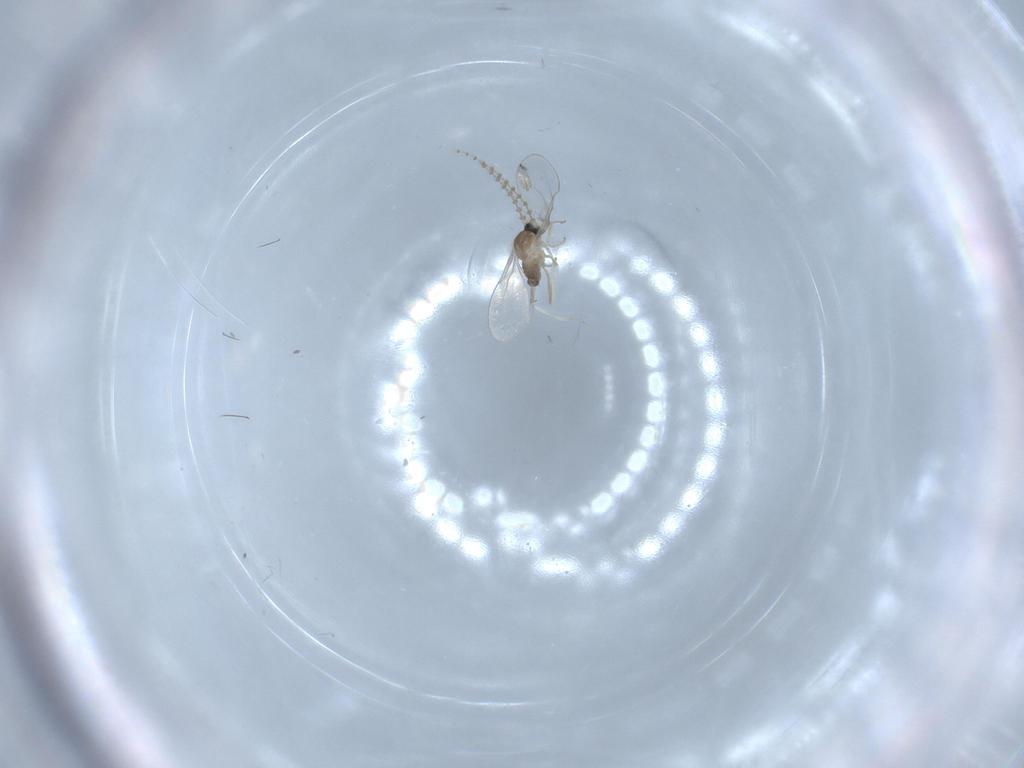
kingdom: Animalia
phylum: Arthropoda
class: Insecta
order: Diptera
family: Cecidomyiidae
